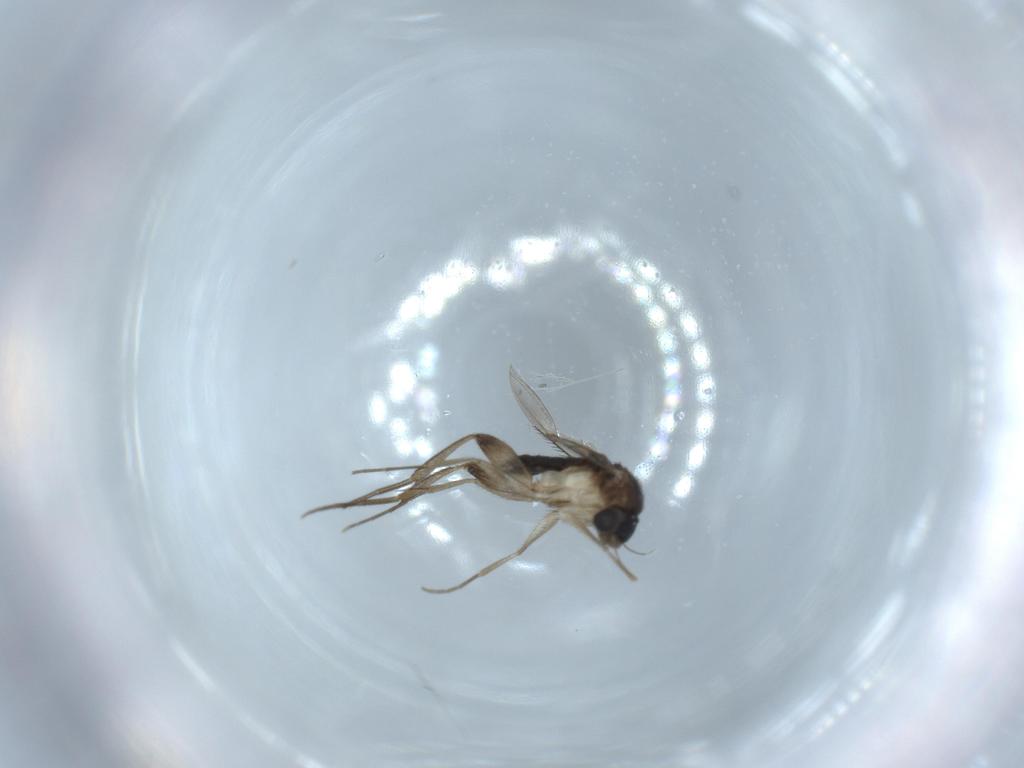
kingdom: Animalia
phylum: Arthropoda
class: Insecta
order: Diptera
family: Phoridae
